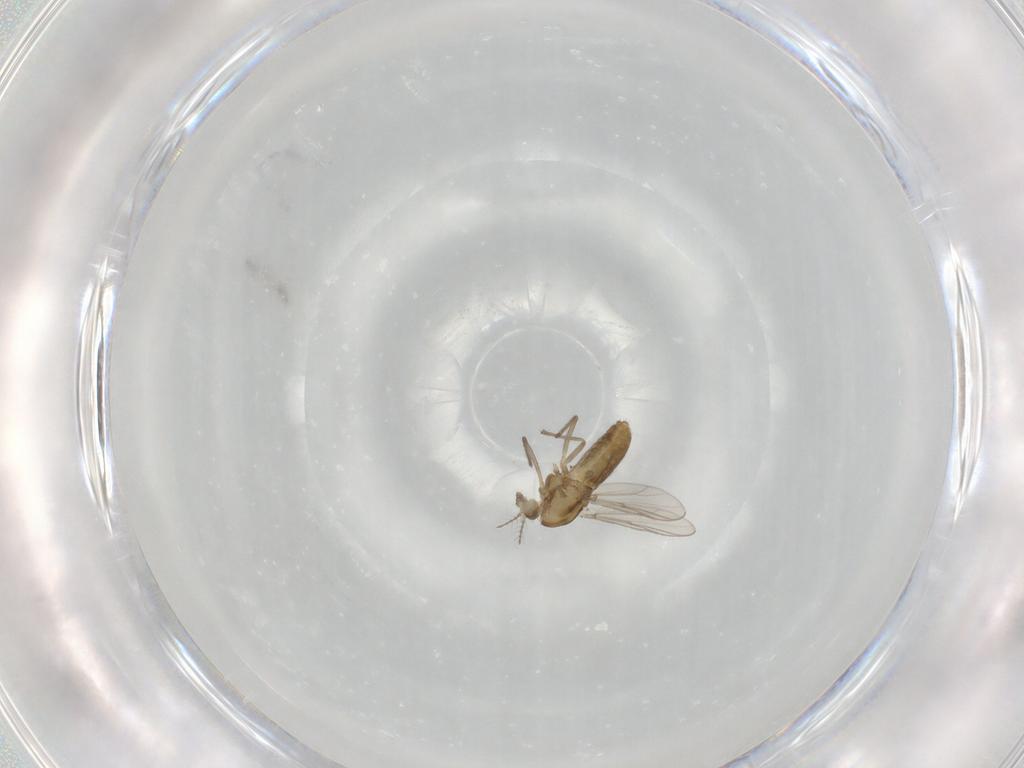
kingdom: Animalia
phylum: Arthropoda
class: Insecta
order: Diptera
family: Chironomidae
